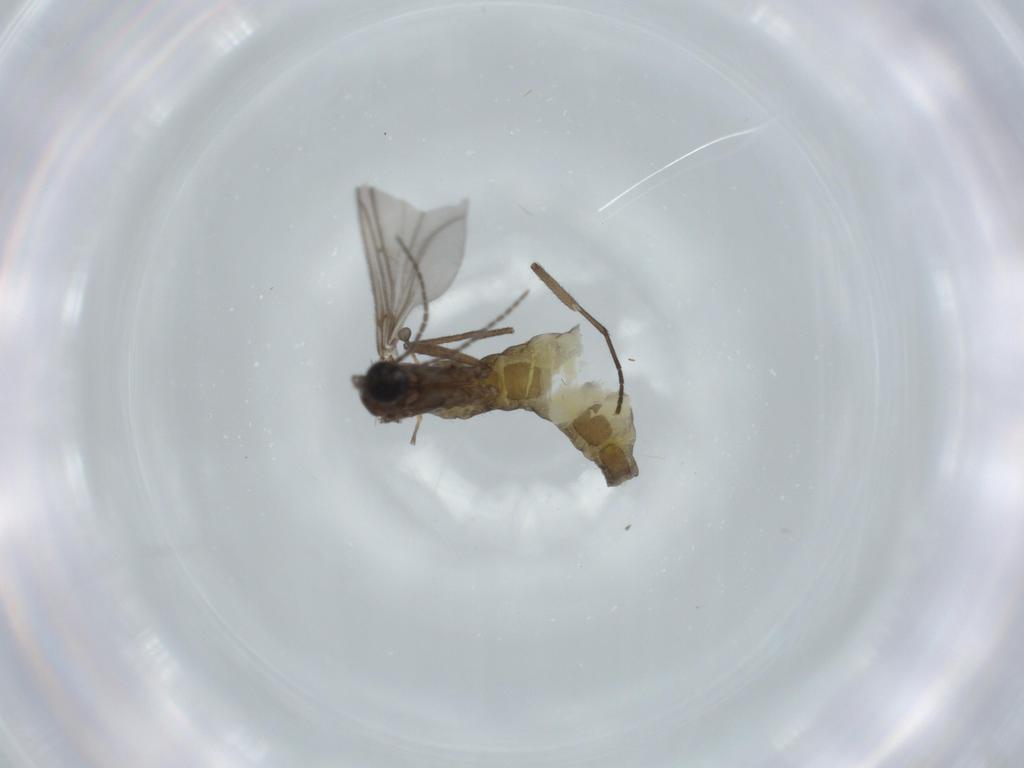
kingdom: Animalia
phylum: Arthropoda
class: Insecta
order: Diptera
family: Sciaridae
